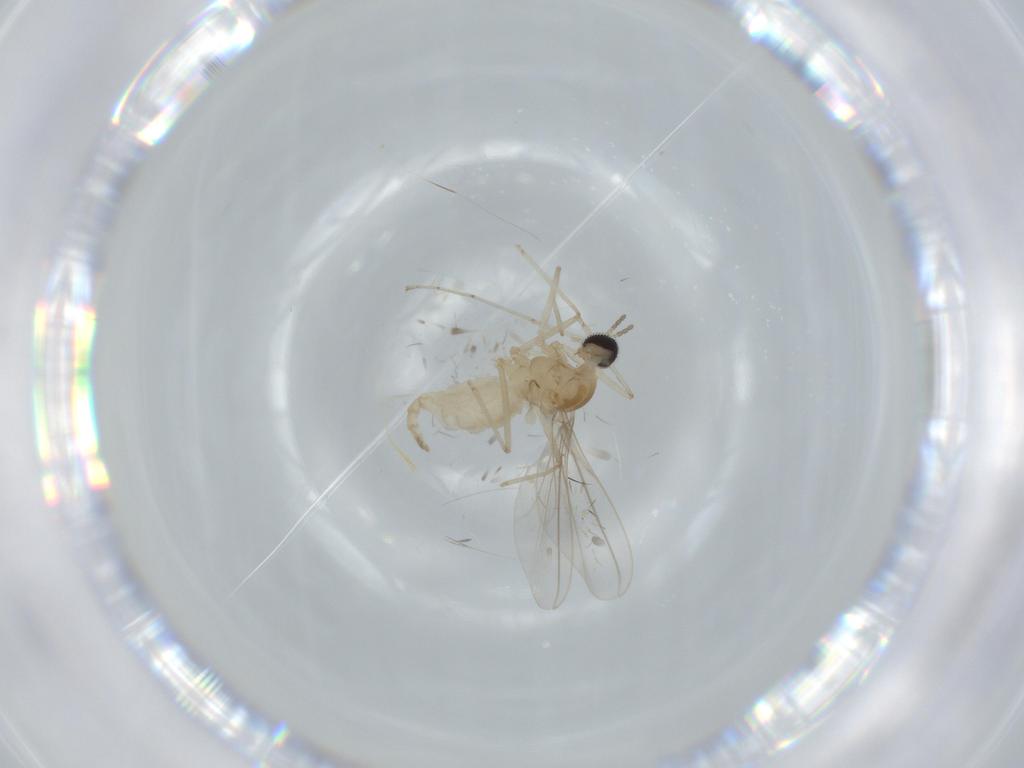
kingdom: Animalia
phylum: Arthropoda
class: Insecta
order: Diptera
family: Cecidomyiidae
